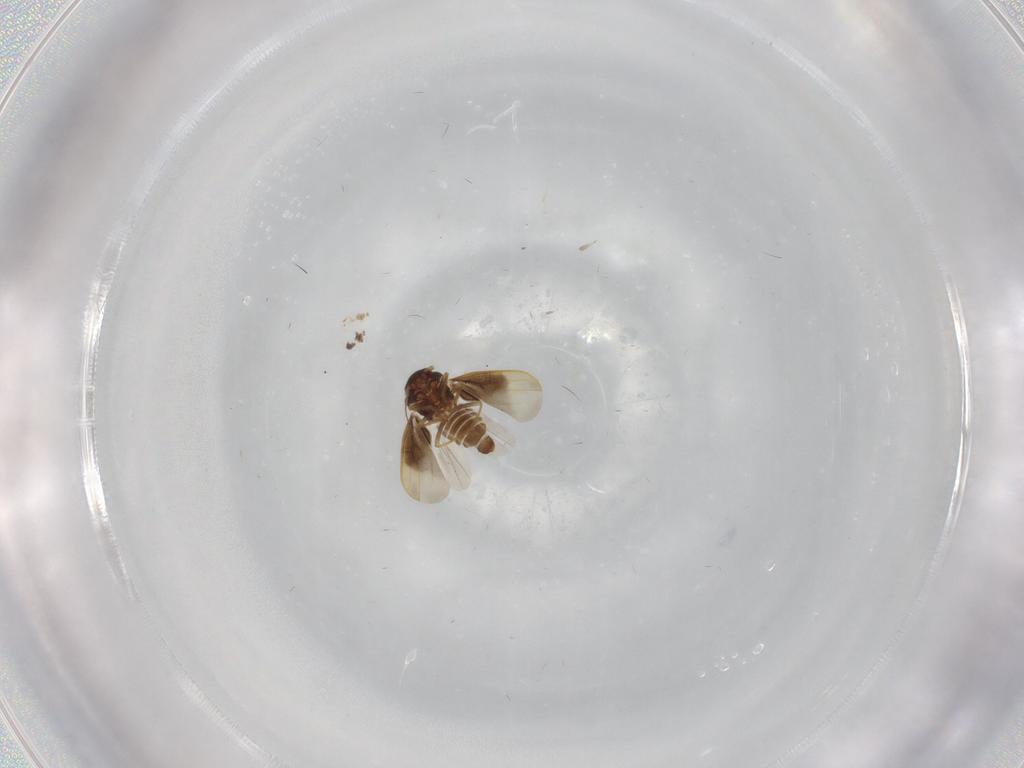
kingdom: Animalia
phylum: Arthropoda
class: Insecta
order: Hemiptera
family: Schizopteridae
